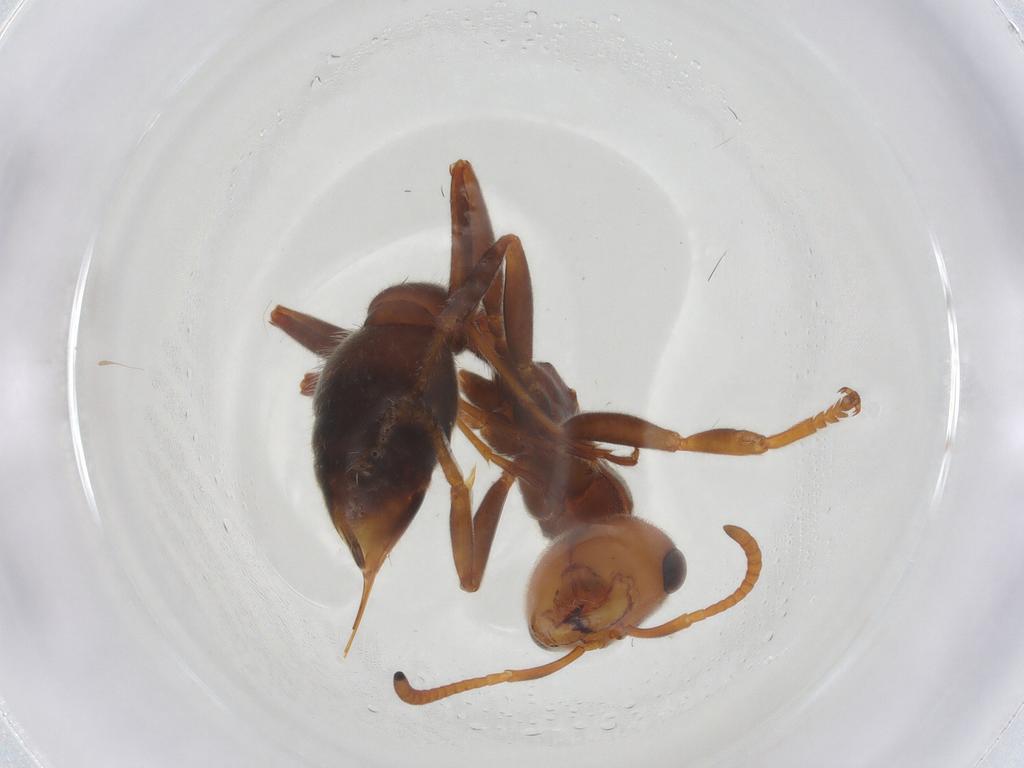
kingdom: Animalia
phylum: Arthropoda
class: Insecta
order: Hymenoptera
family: Formicidae
